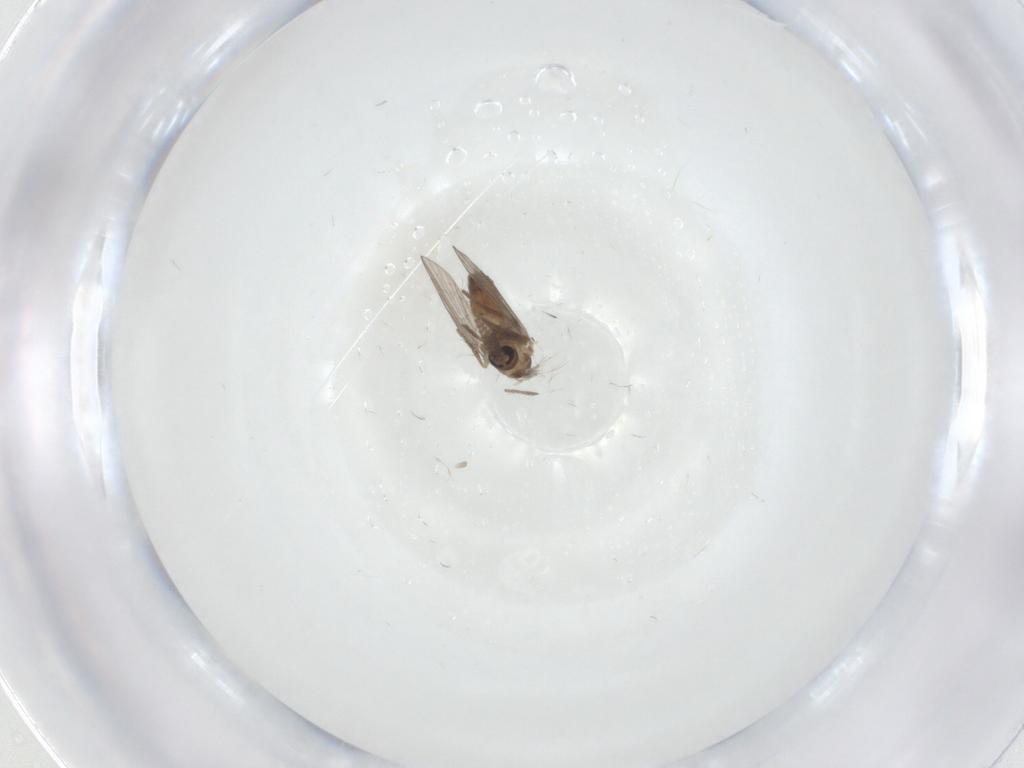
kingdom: Animalia
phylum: Arthropoda
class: Insecta
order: Diptera
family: Psychodidae
